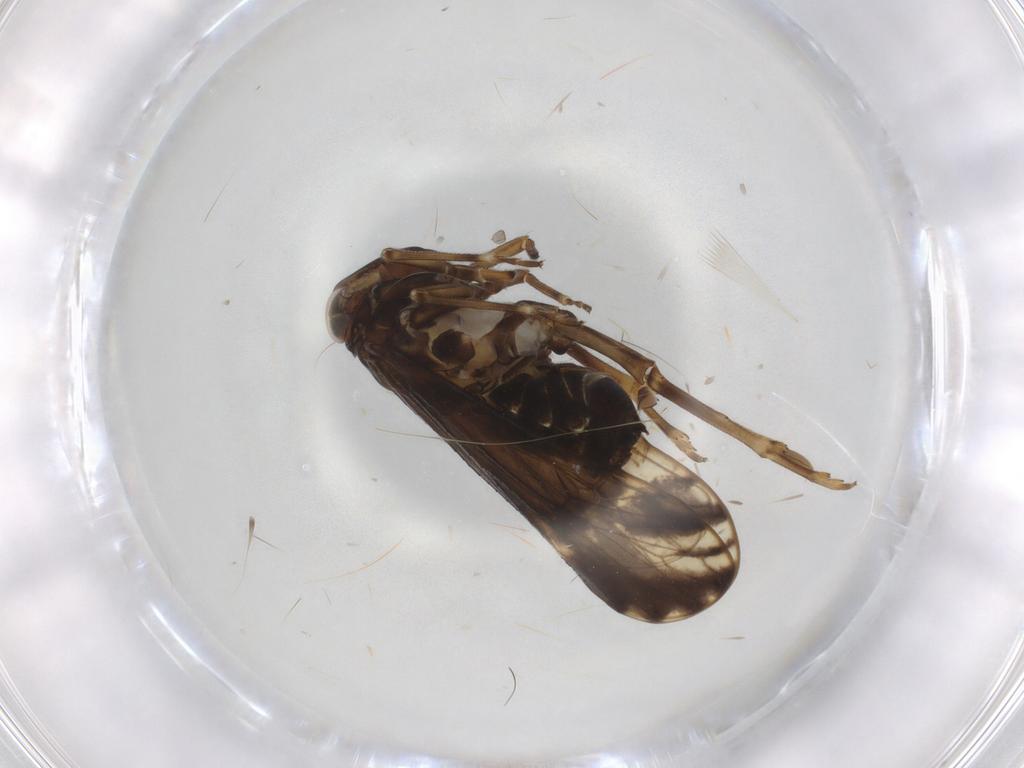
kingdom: Animalia
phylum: Arthropoda
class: Insecta
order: Hemiptera
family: Delphacidae
